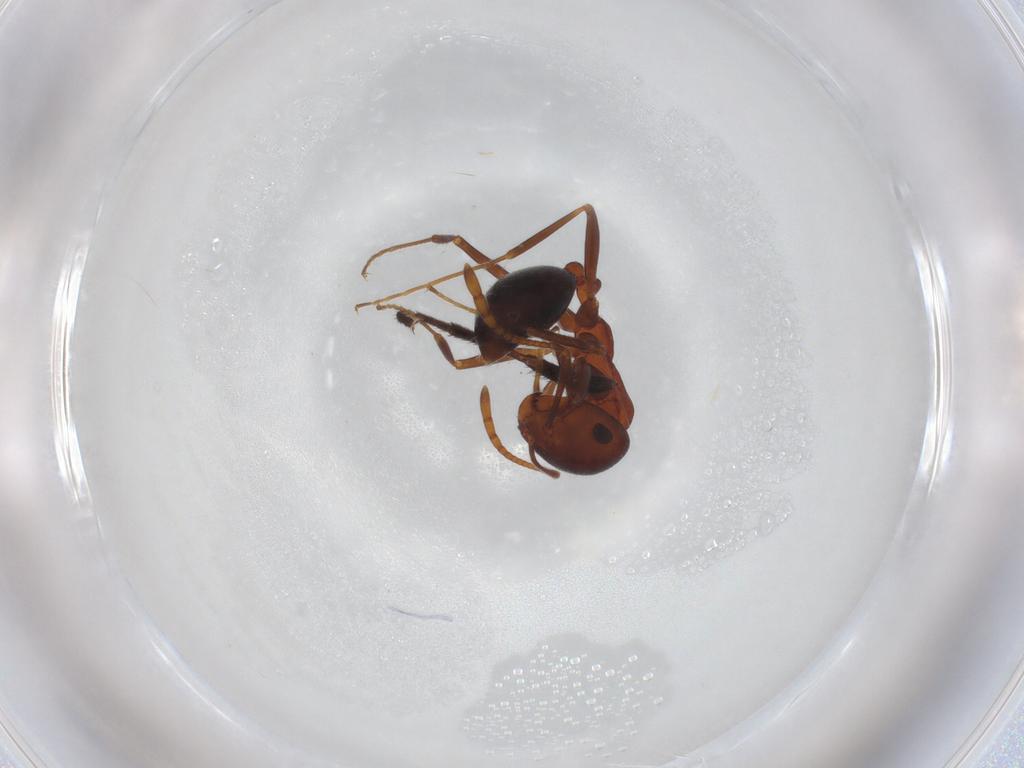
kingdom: Animalia
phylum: Arthropoda
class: Insecta
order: Hymenoptera
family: Formicidae
